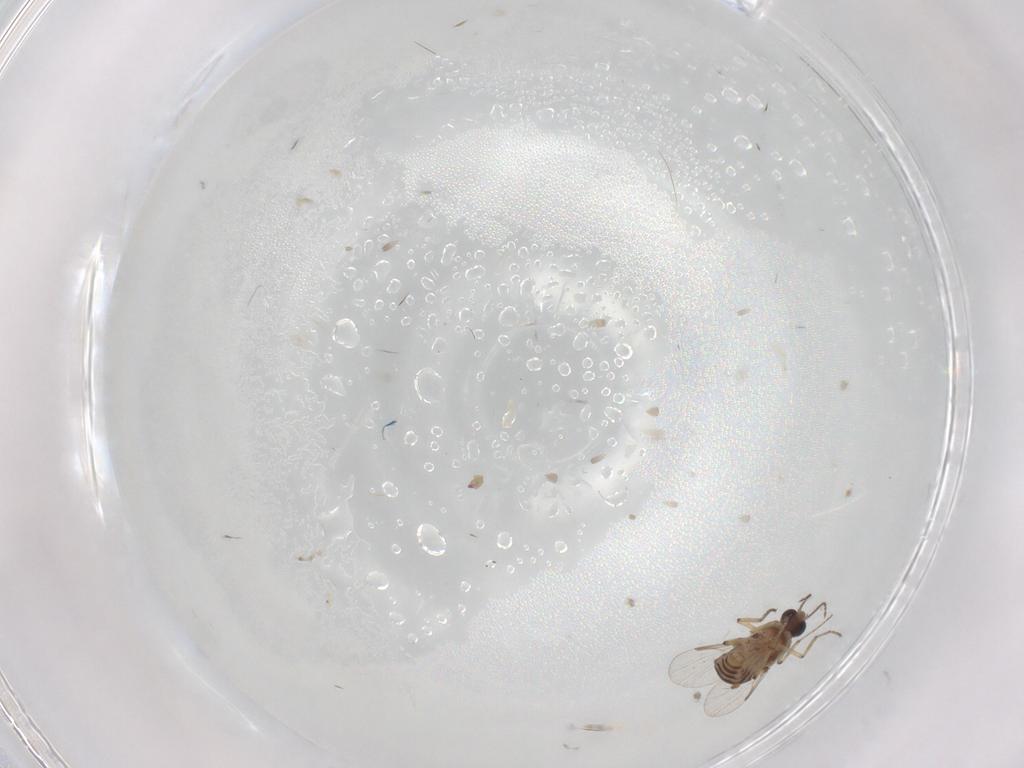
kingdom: Animalia
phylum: Arthropoda
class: Insecta
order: Diptera
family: Ceratopogonidae
